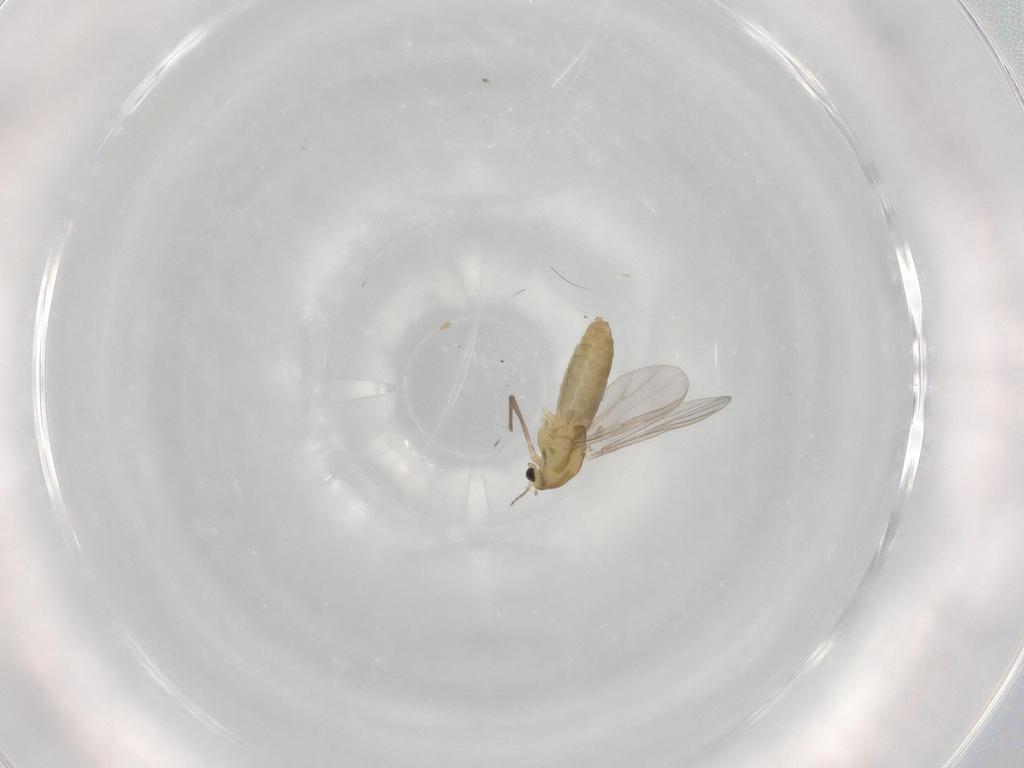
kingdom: Animalia
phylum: Arthropoda
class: Insecta
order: Diptera
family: Chironomidae
